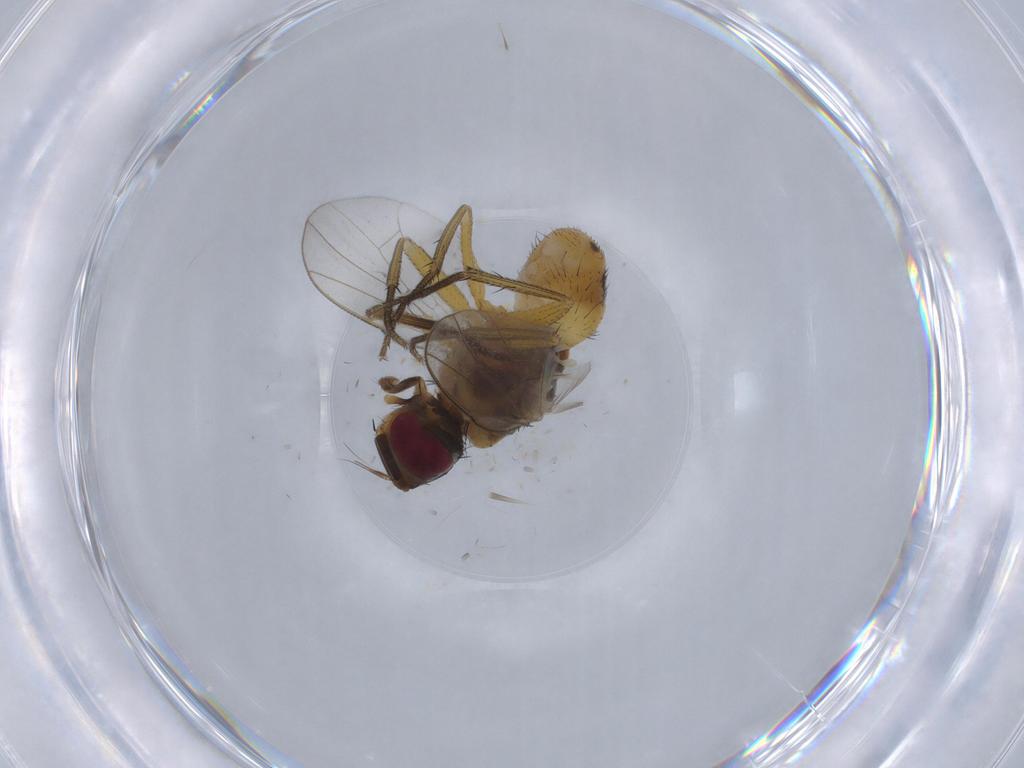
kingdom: Animalia
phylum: Arthropoda
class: Insecta
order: Diptera
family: Muscidae
